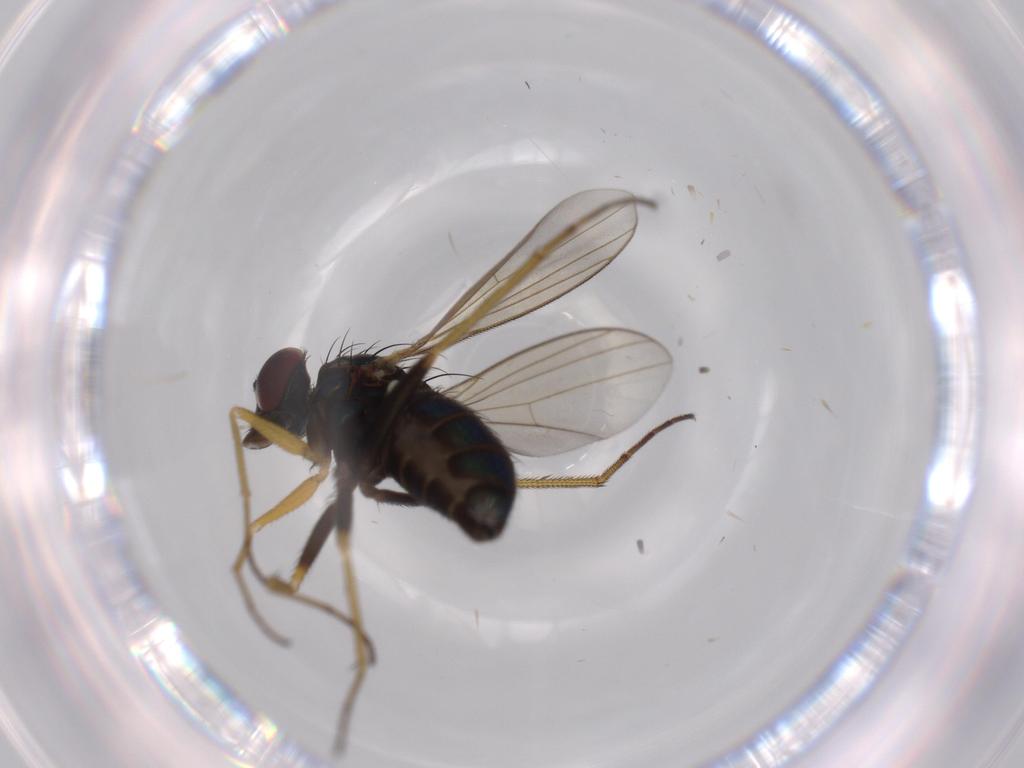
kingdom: Animalia
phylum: Arthropoda
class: Insecta
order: Diptera
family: Dolichopodidae
